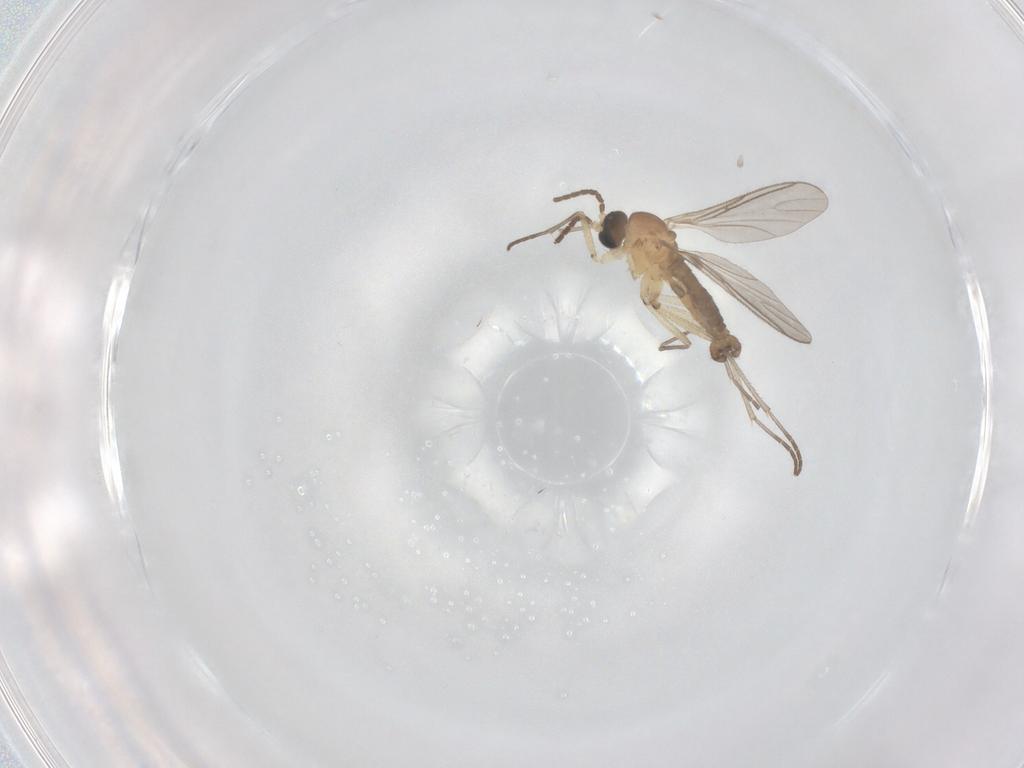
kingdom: Animalia
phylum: Arthropoda
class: Insecta
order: Diptera
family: Sciaridae
